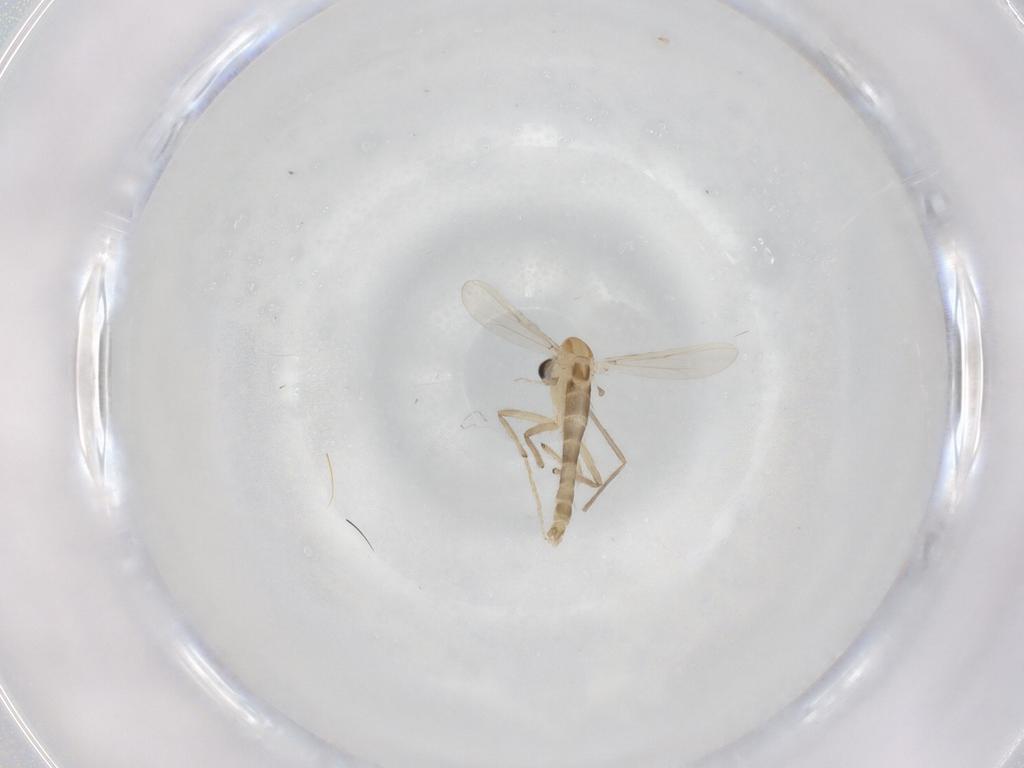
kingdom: Animalia
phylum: Arthropoda
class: Insecta
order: Diptera
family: Chironomidae
